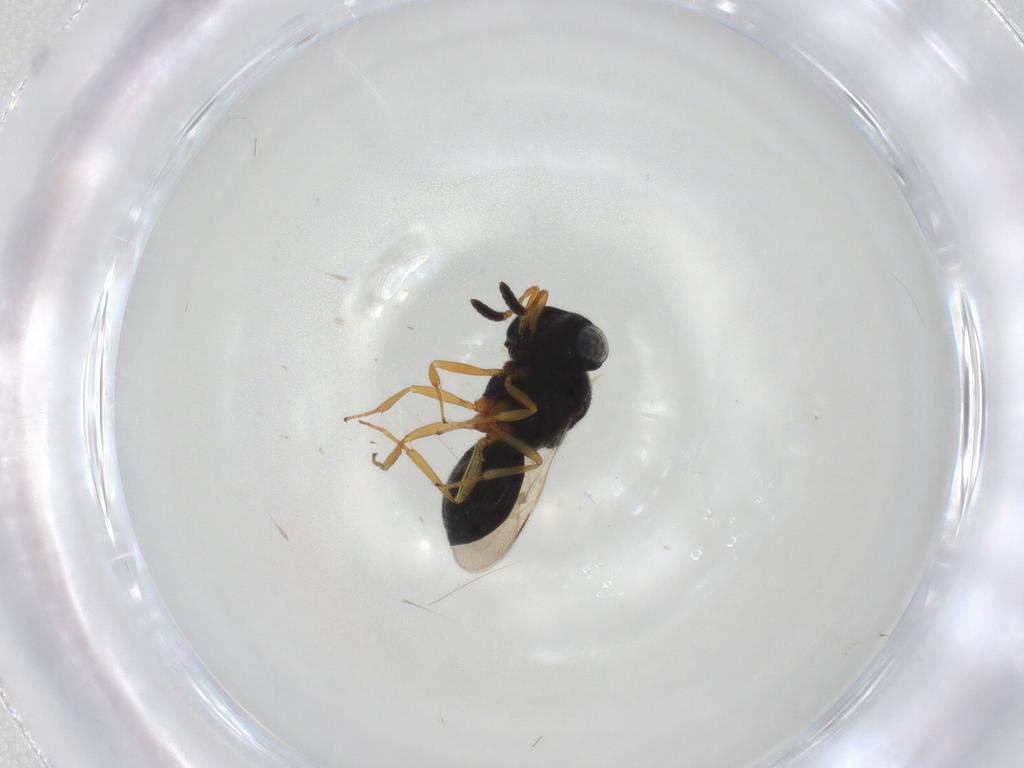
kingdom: Animalia
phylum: Arthropoda
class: Insecta
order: Hymenoptera
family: Scelionidae
